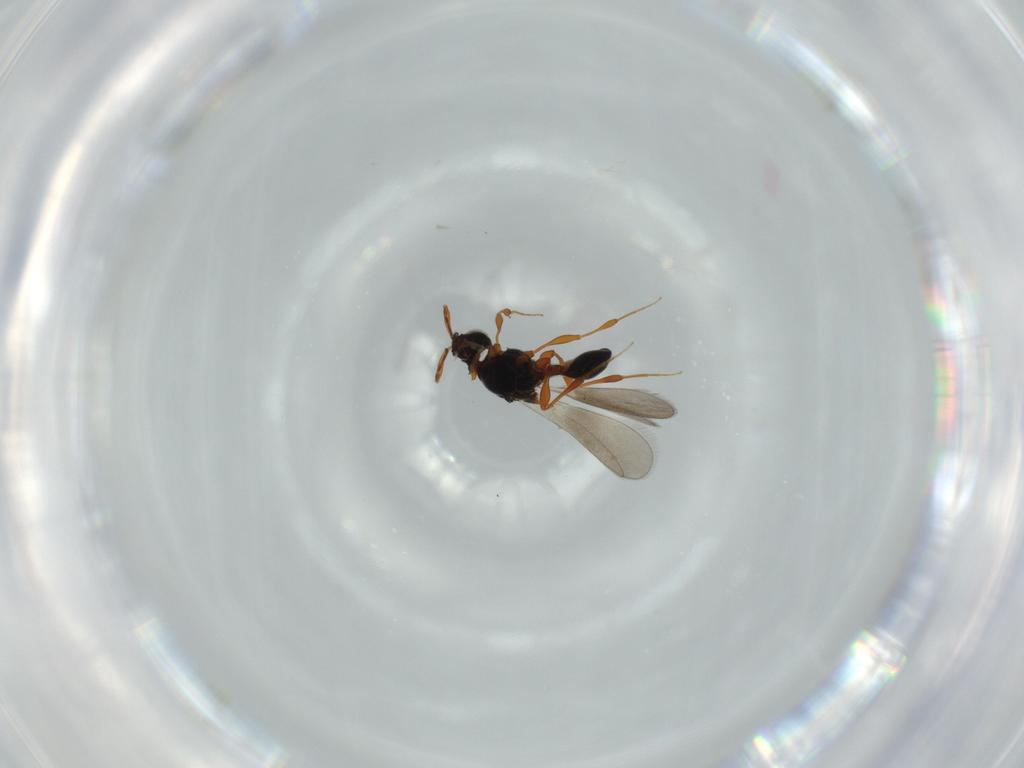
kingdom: Animalia
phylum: Arthropoda
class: Insecta
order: Hymenoptera
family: Platygastridae
